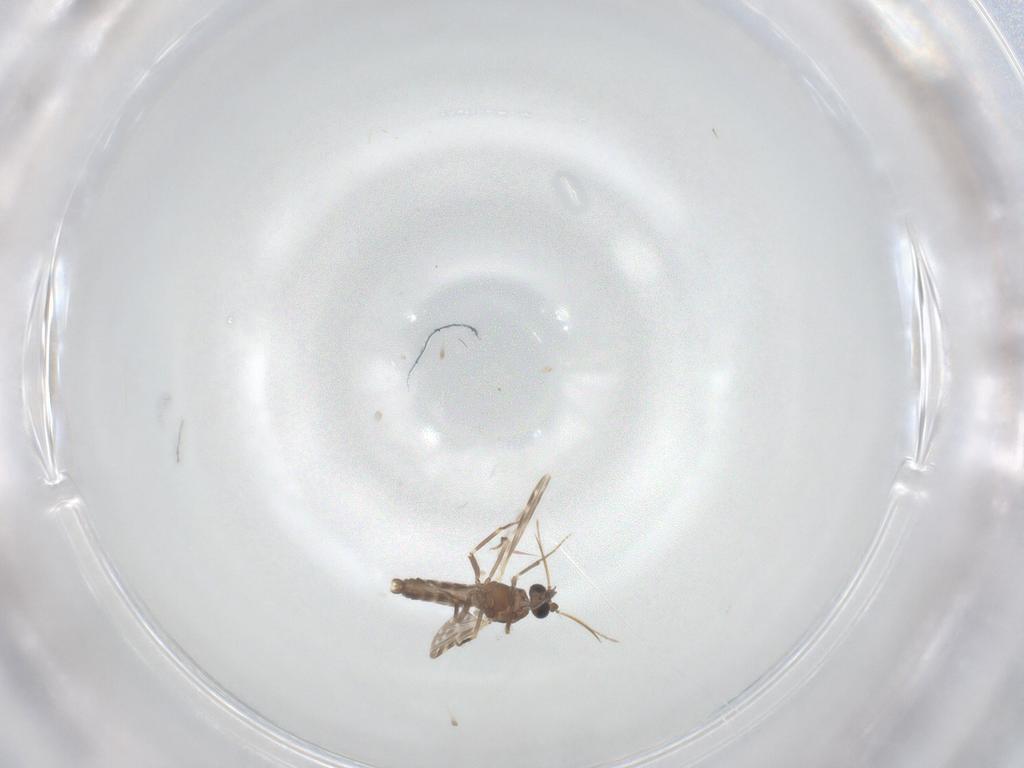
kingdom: Animalia
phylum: Arthropoda
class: Insecta
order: Diptera
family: Ceratopogonidae
